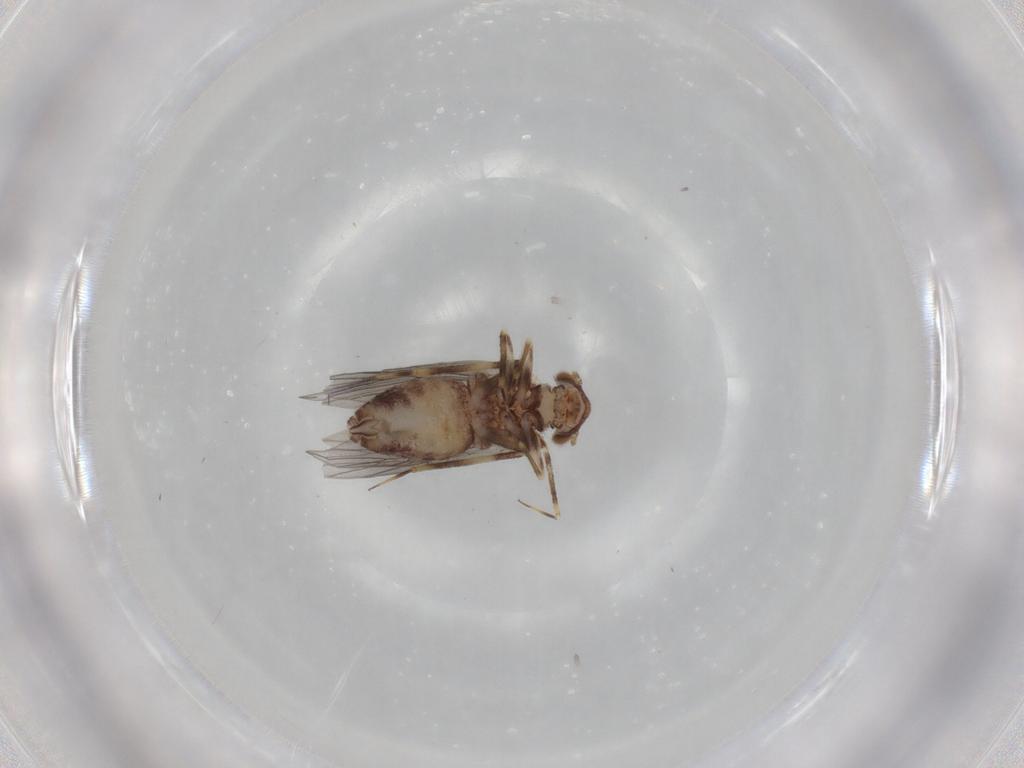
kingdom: Animalia
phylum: Arthropoda
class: Insecta
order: Psocodea
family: Lepidopsocidae
